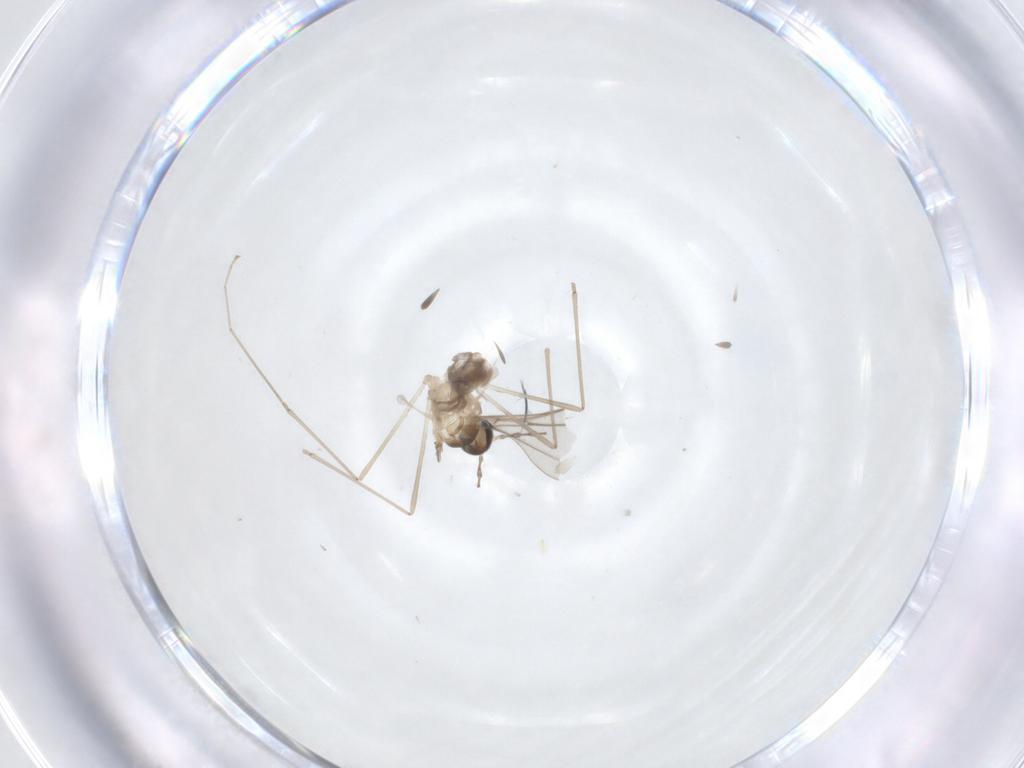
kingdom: Animalia
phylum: Arthropoda
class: Insecta
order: Diptera
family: Cecidomyiidae
